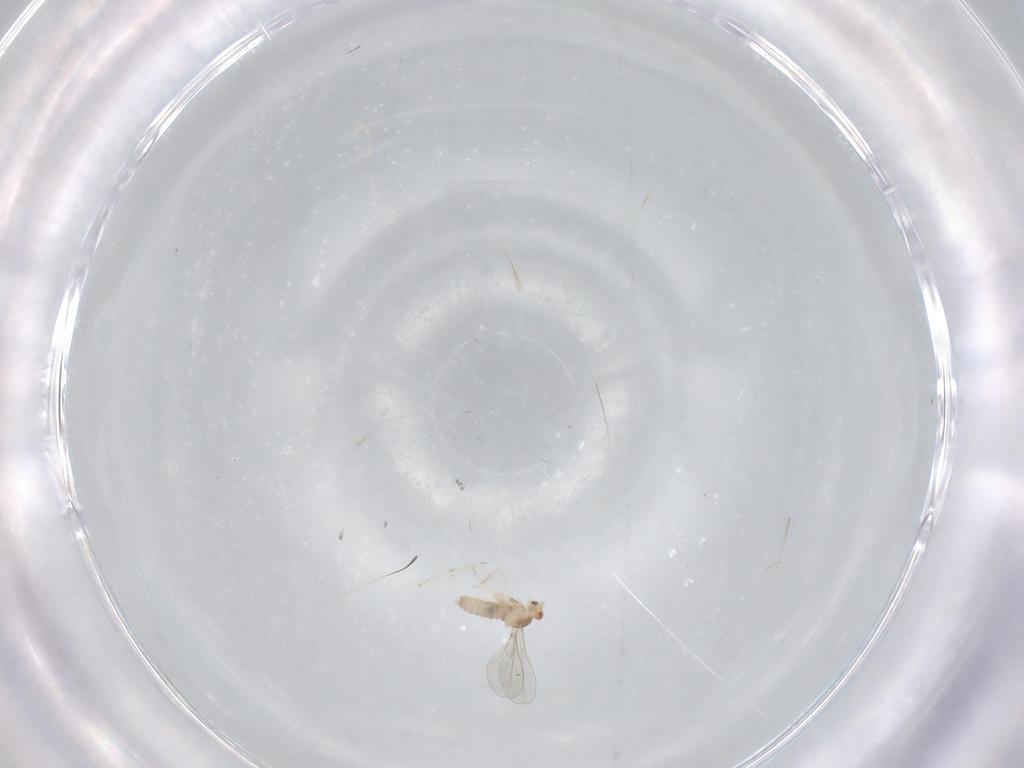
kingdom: Animalia
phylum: Arthropoda
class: Insecta
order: Diptera
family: Cecidomyiidae
